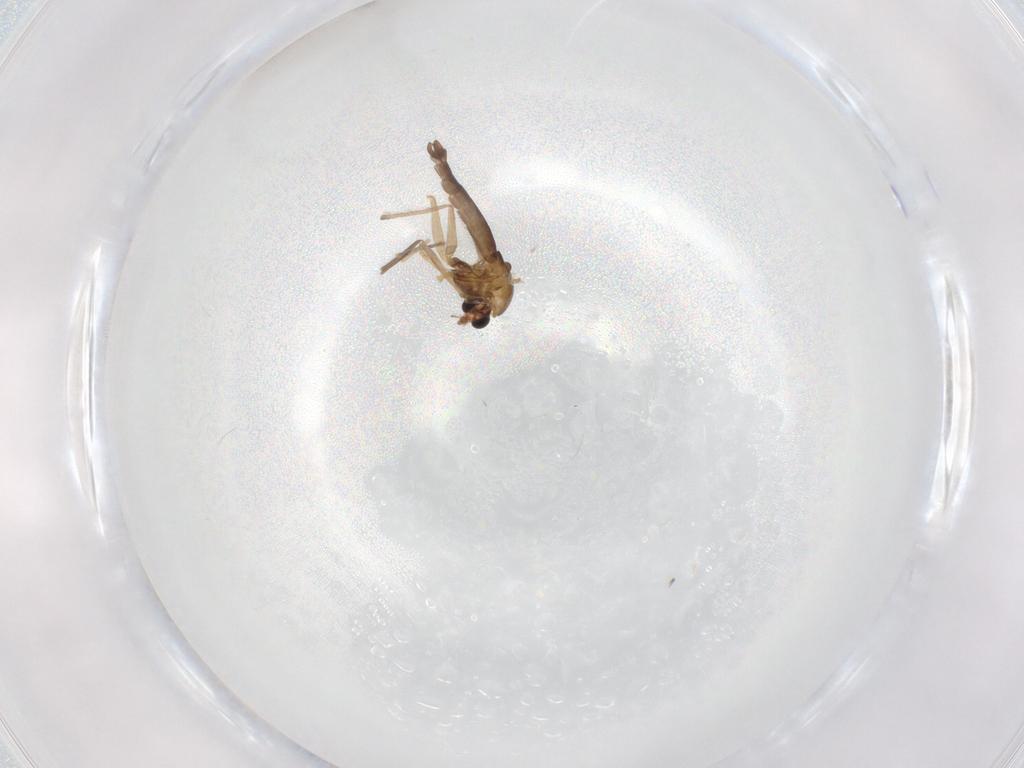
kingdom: Animalia
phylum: Arthropoda
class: Insecta
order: Diptera
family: Chironomidae
